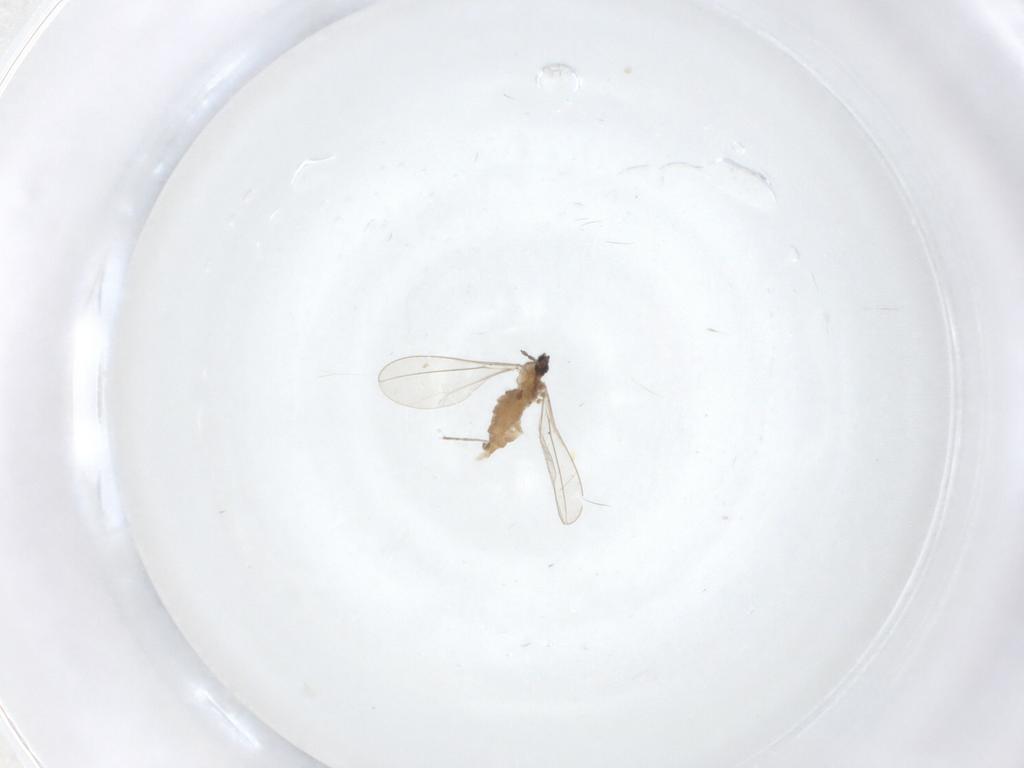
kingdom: Animalia
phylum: Arthropoda
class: Insecta
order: Diptera
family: Cecidomyiidae
